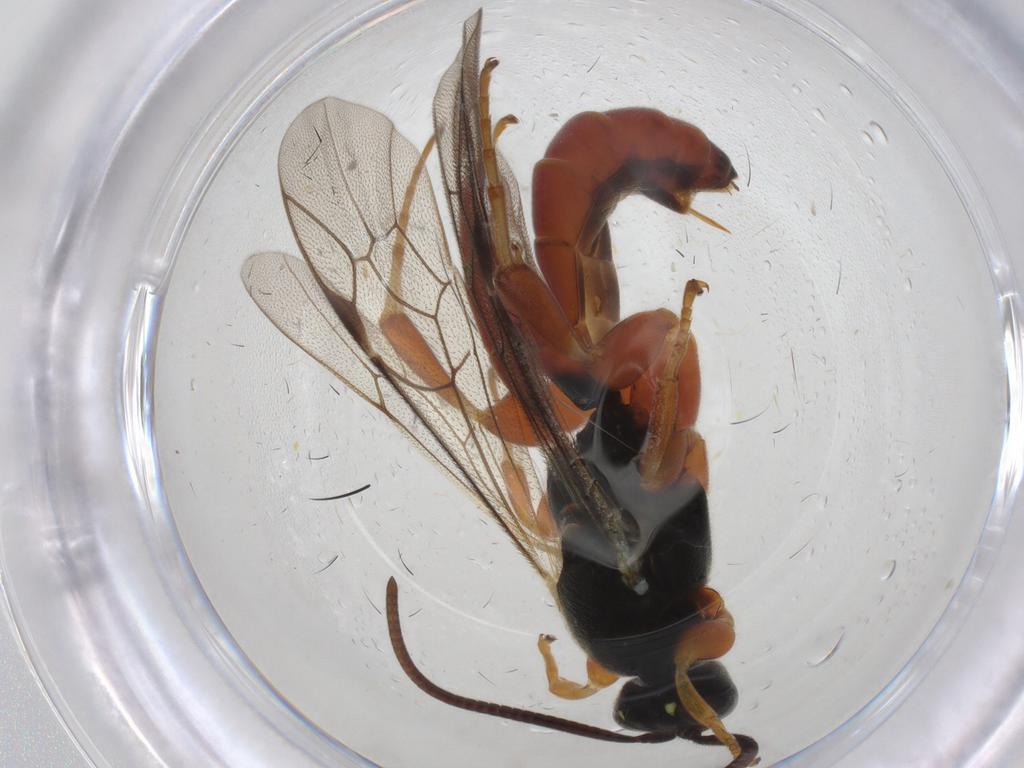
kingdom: Animalia
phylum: Arthropoda
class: Insecta
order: Hymenoptera
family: Ichneumonidae
